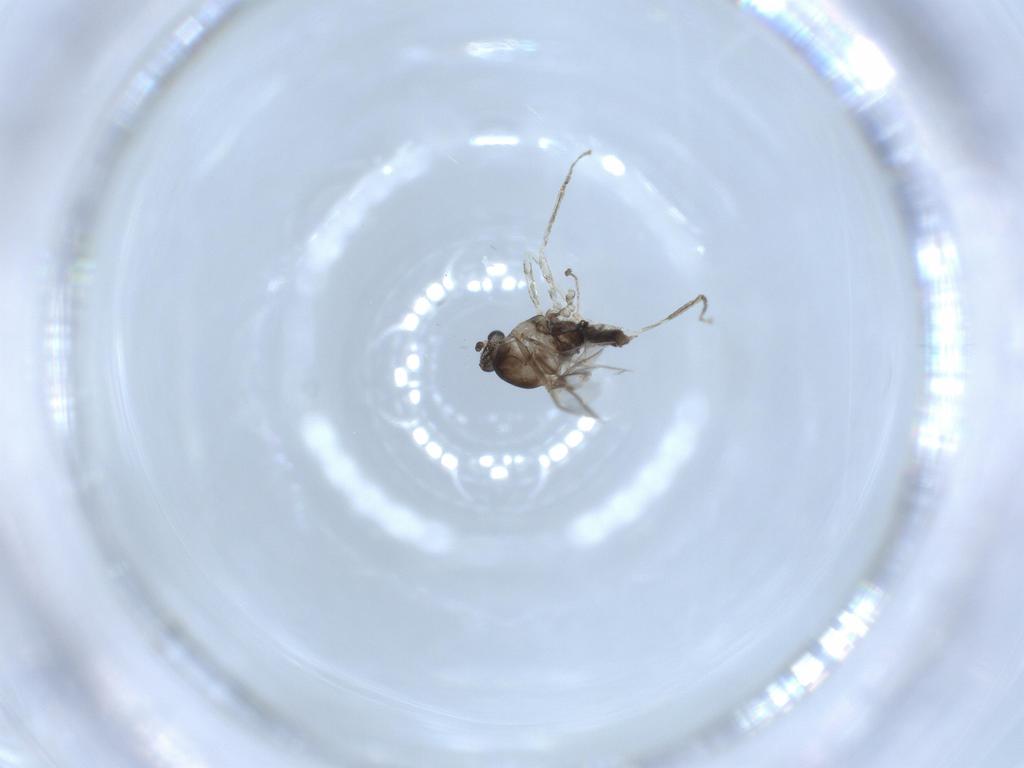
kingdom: Animalia
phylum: Arthropoda
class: Insecta
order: Diptera
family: Cecidomyiidae
